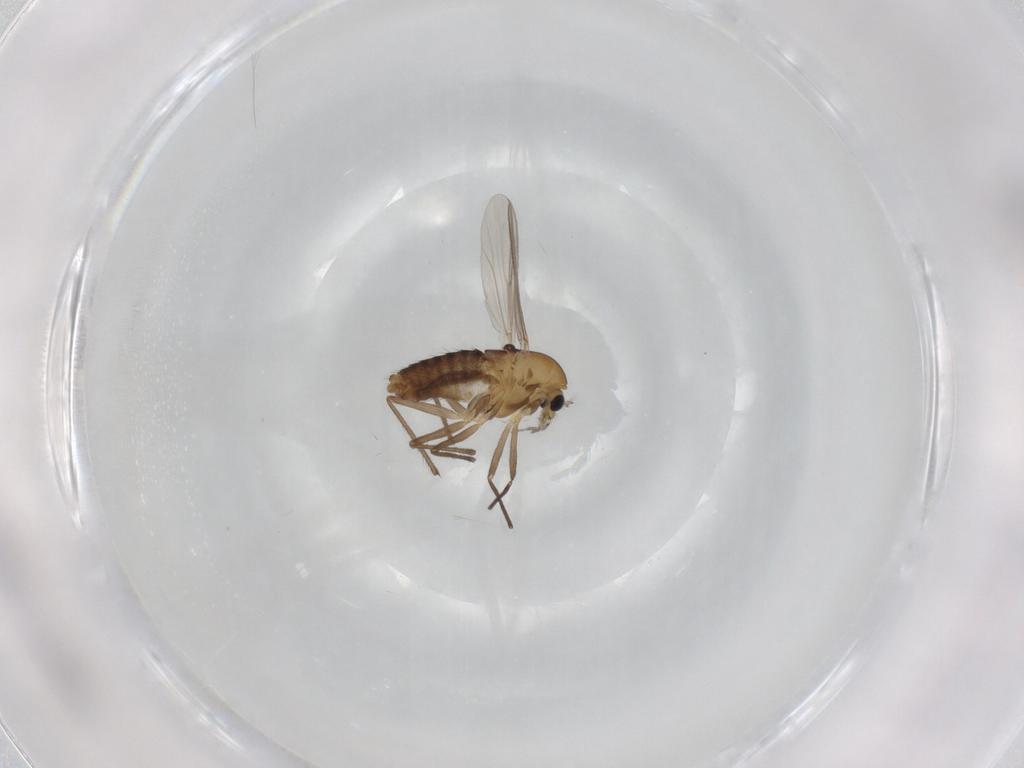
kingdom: Animalia
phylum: Arthropoda
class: Insecta
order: Diptera
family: Chironomidae
